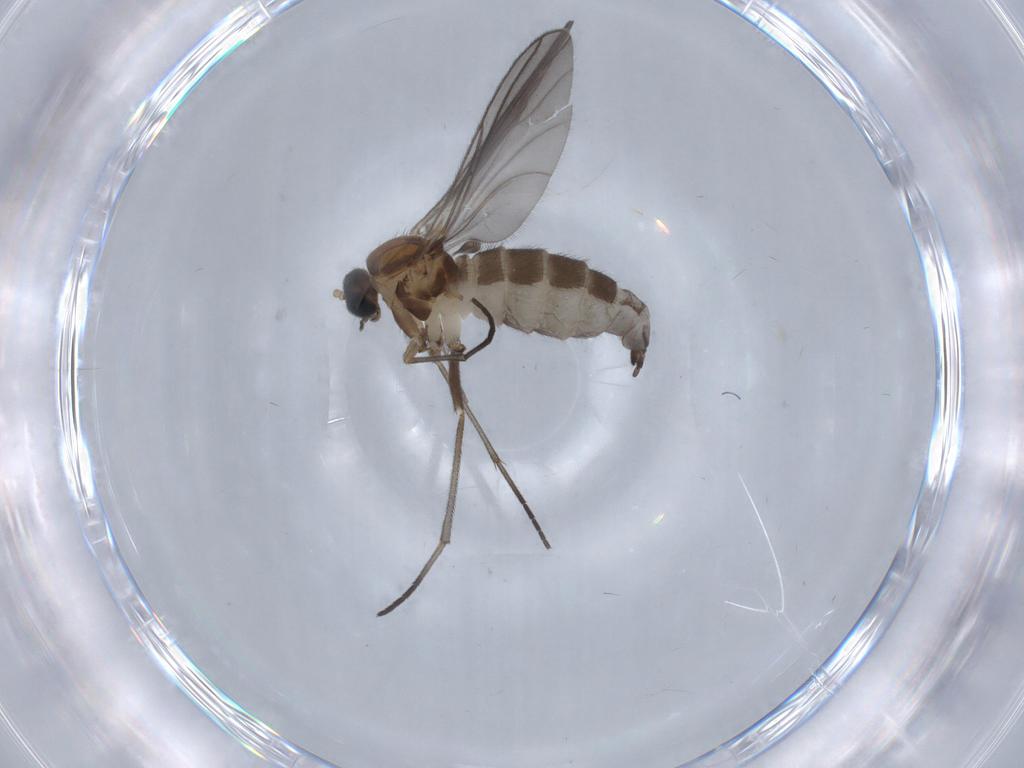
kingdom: Animalia
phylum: Arthropoda
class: Insecta
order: Diptera
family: Sciaridae
